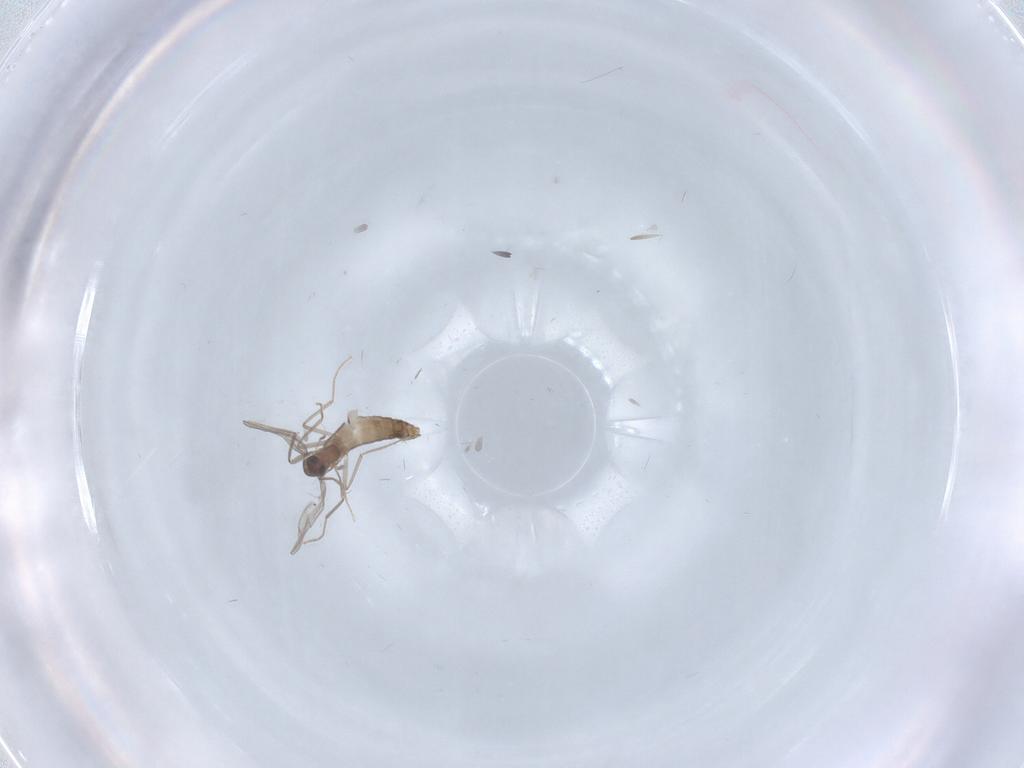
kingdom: Animalia
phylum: Arthropoda
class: Insecta
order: Diptera
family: Chironomidae
